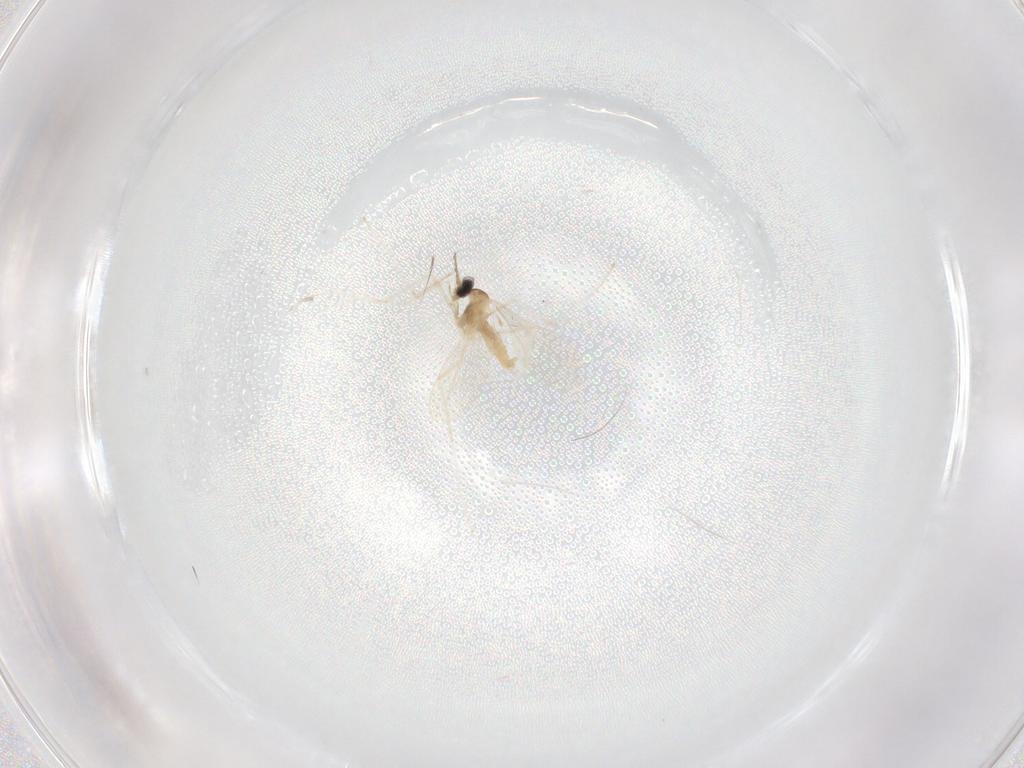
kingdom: Animalia
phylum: Arthropoda
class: Insecta
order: Diptera
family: Cecidomyiidae
